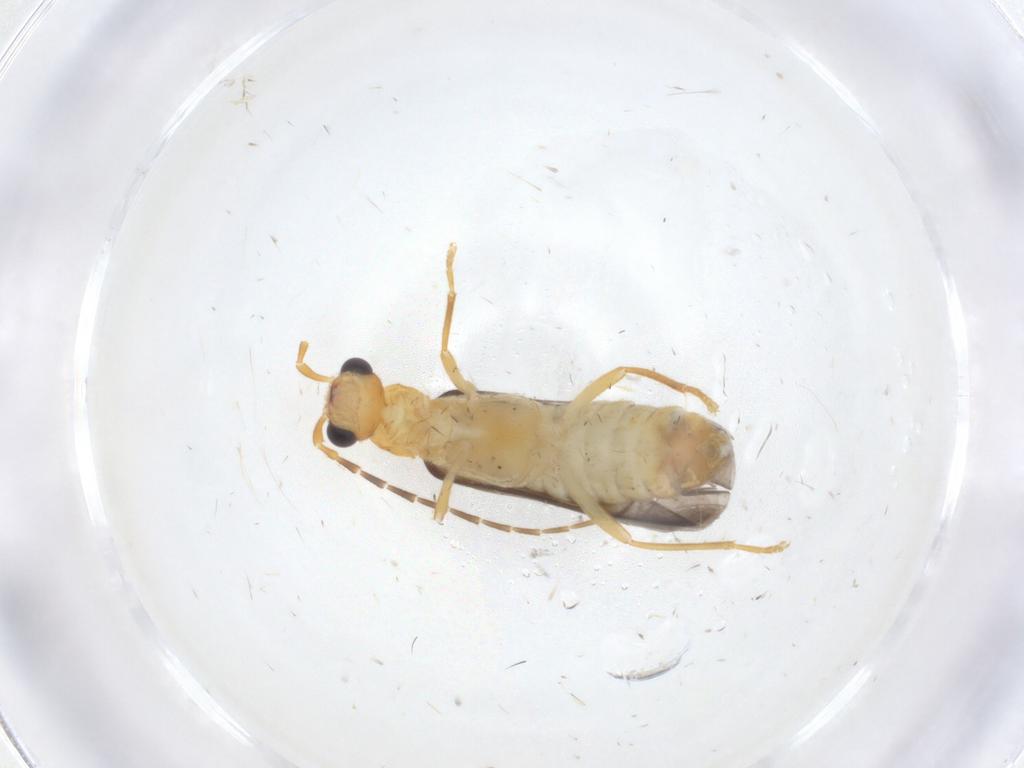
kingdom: Animalia
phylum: Arthropoda
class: Insecta
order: Coleoptera
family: Cantharidae
